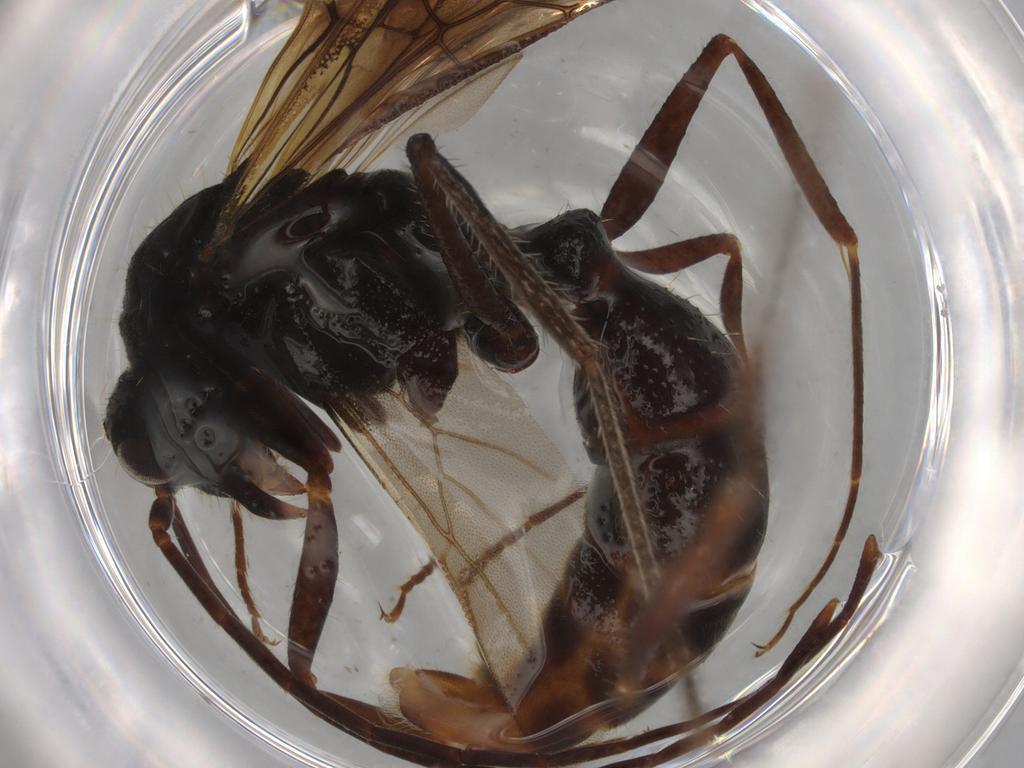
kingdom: Animalia
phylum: Arthropoda
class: Insecta
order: Hymenoptera
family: Formicidae
